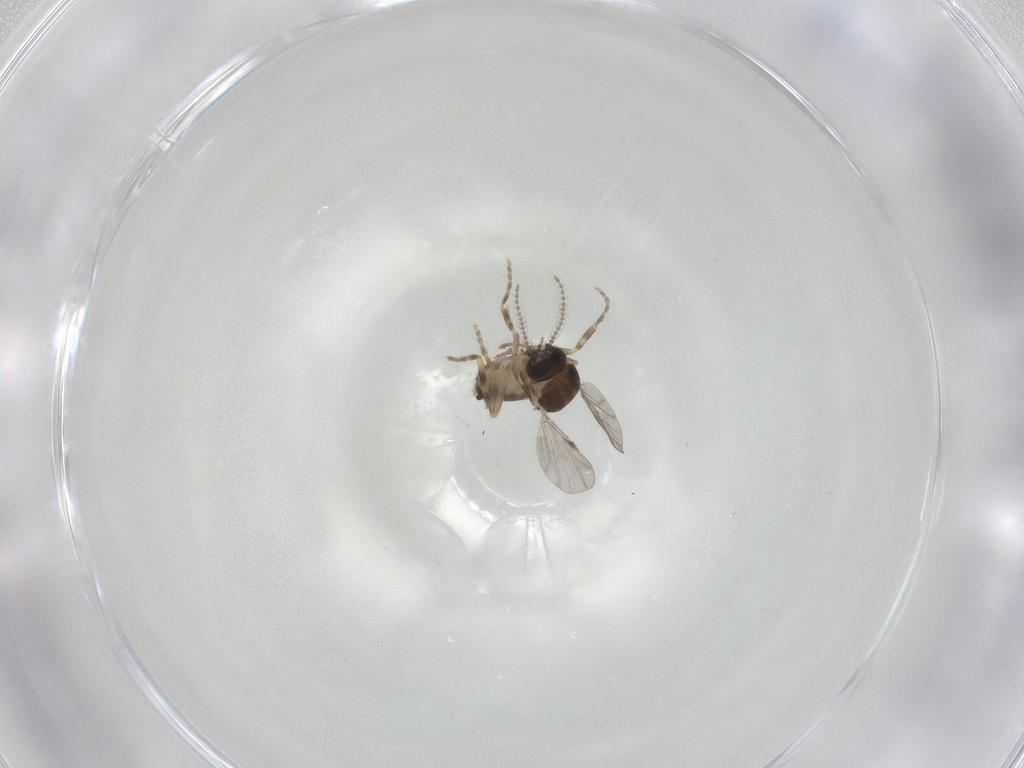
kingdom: Animalia
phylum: Arthropoda
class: Insecta
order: Diptera
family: Ceratopogonidae
